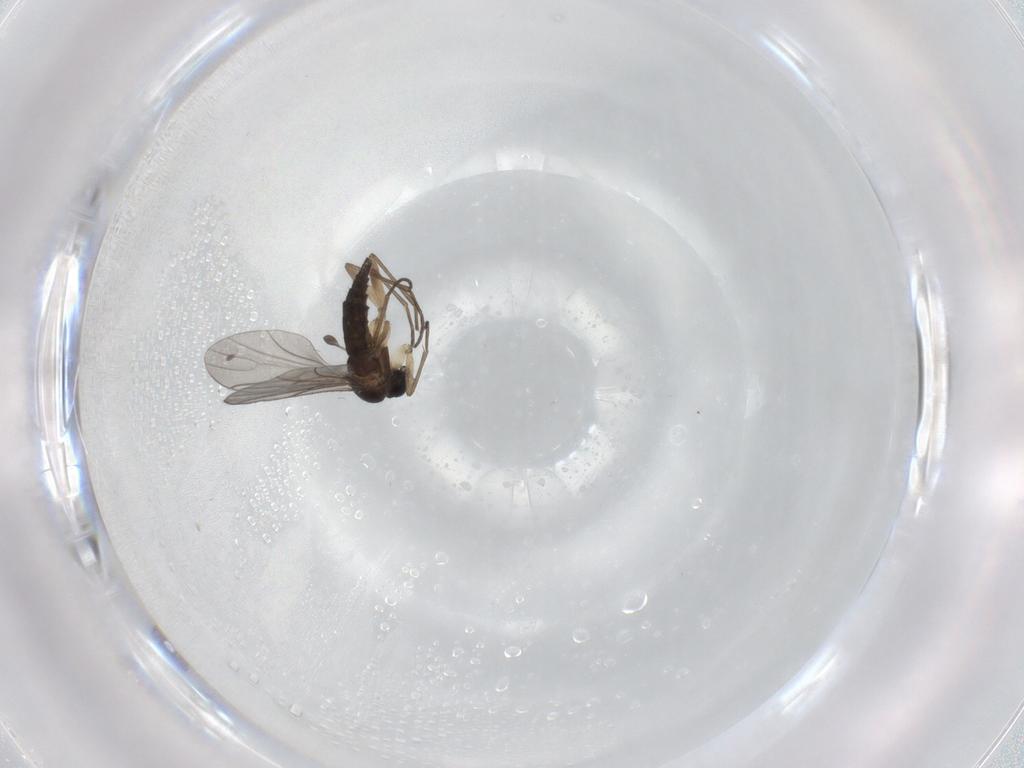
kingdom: Animalia
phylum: Arthropoda
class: Insecta
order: Diptera
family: Sciaridae
